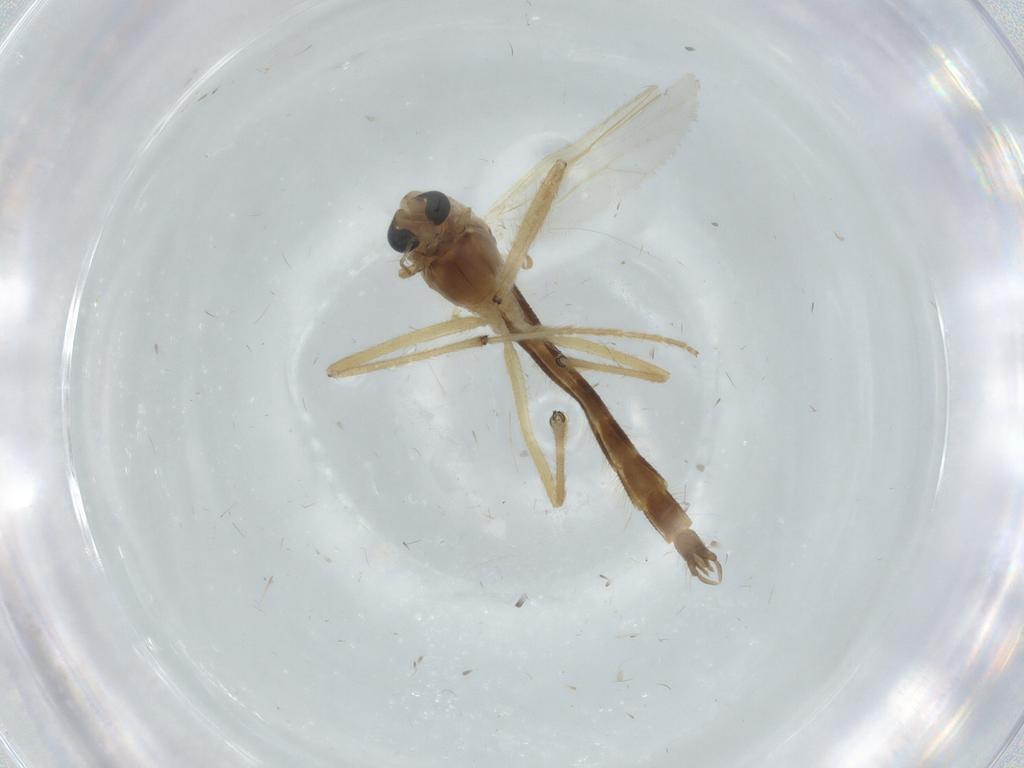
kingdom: Animalia
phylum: Arthropoda
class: Insecta
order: Diptera
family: Chironomidae
